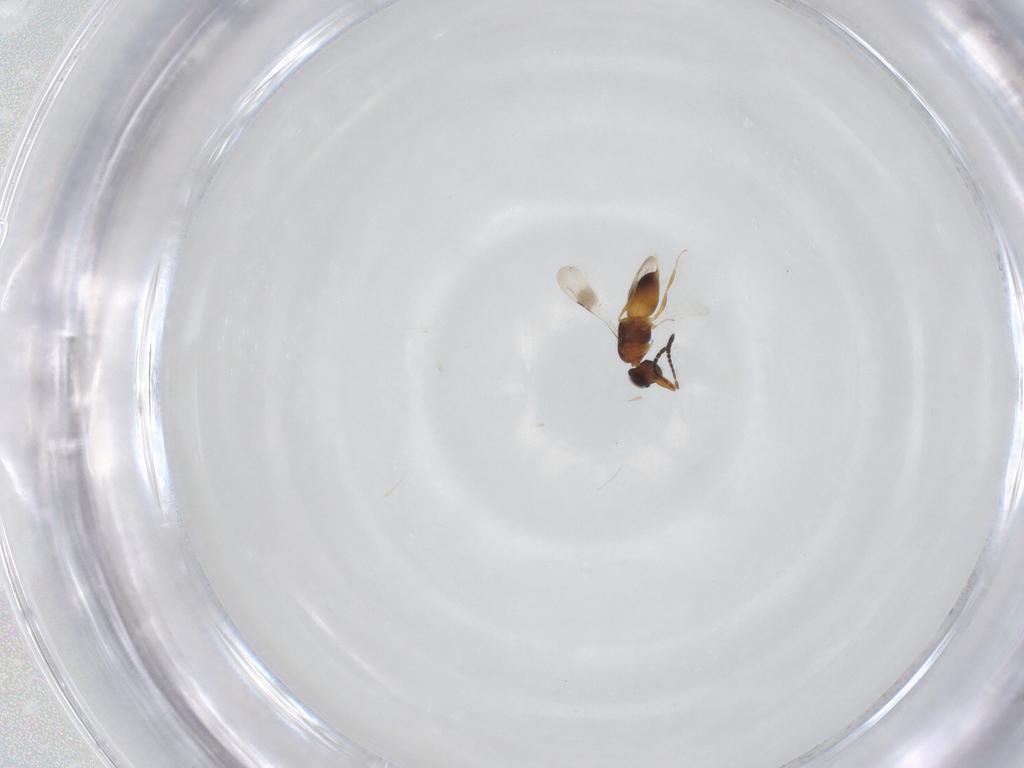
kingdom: Animalia
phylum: Arthropoda
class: Insecta
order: Hymenoptera
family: Ceraphronidae
